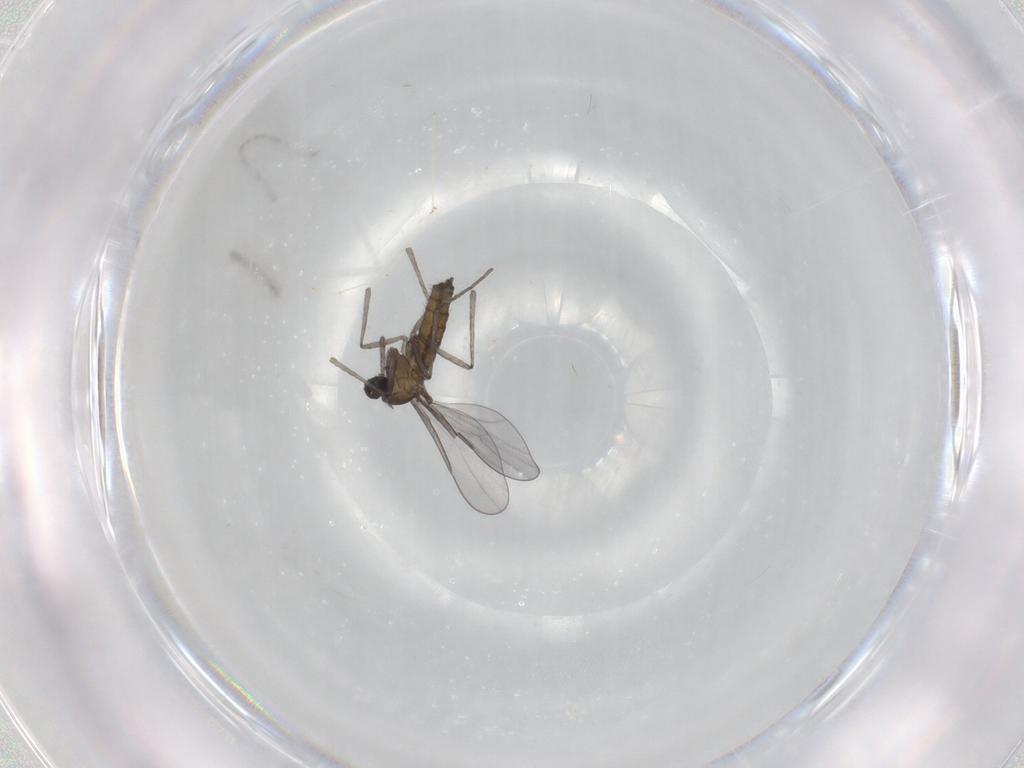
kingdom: Animalia
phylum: Arthropoda
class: Insecta
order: Diptera
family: Cecidomyiidae
